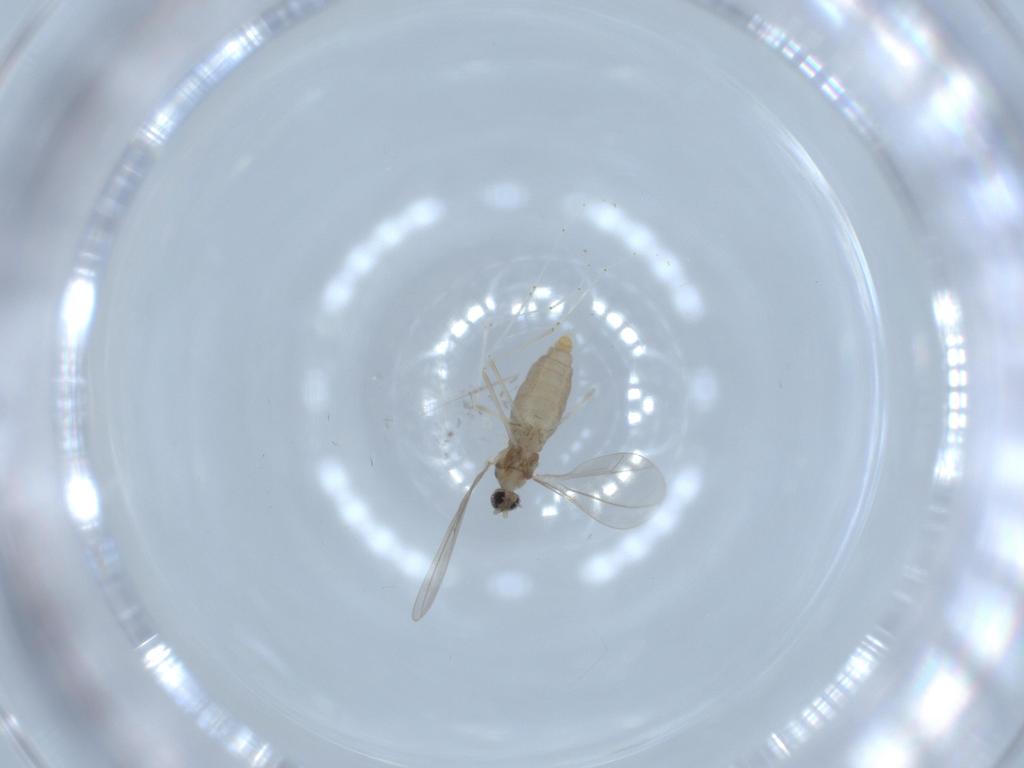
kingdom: Animalia
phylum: Arthropoda
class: Insecta
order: Diptera
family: Cecidomyiidae
